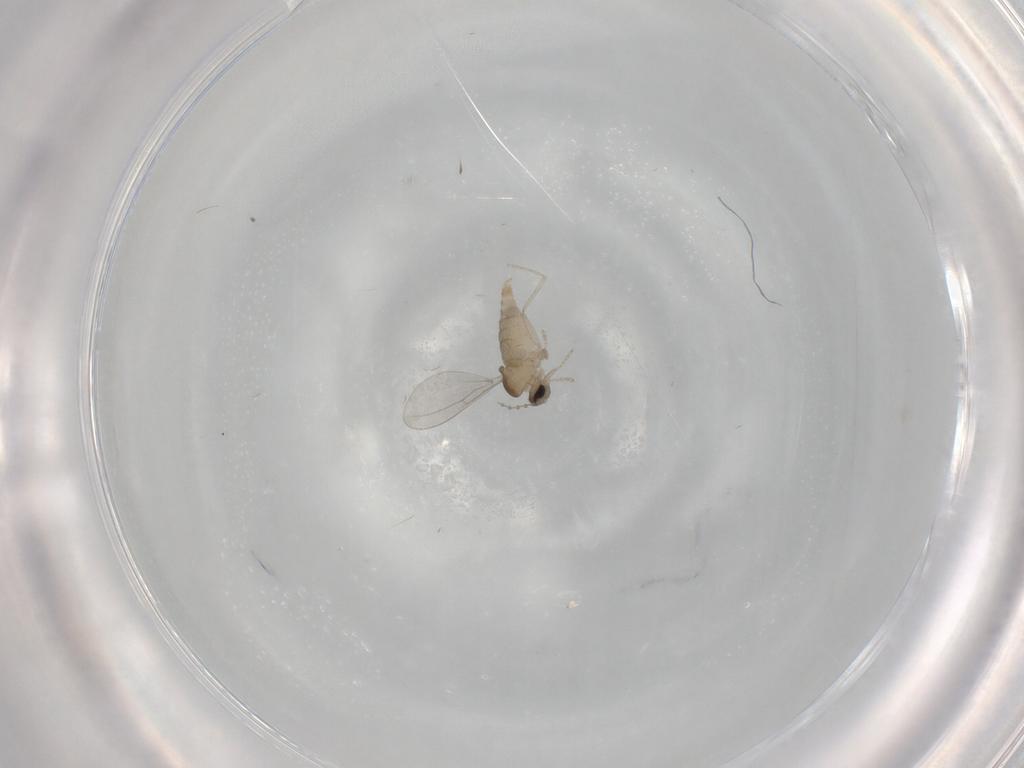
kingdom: Animalia
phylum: Arthropoda
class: Insecta
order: Diptera
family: Cecidomyiidae
